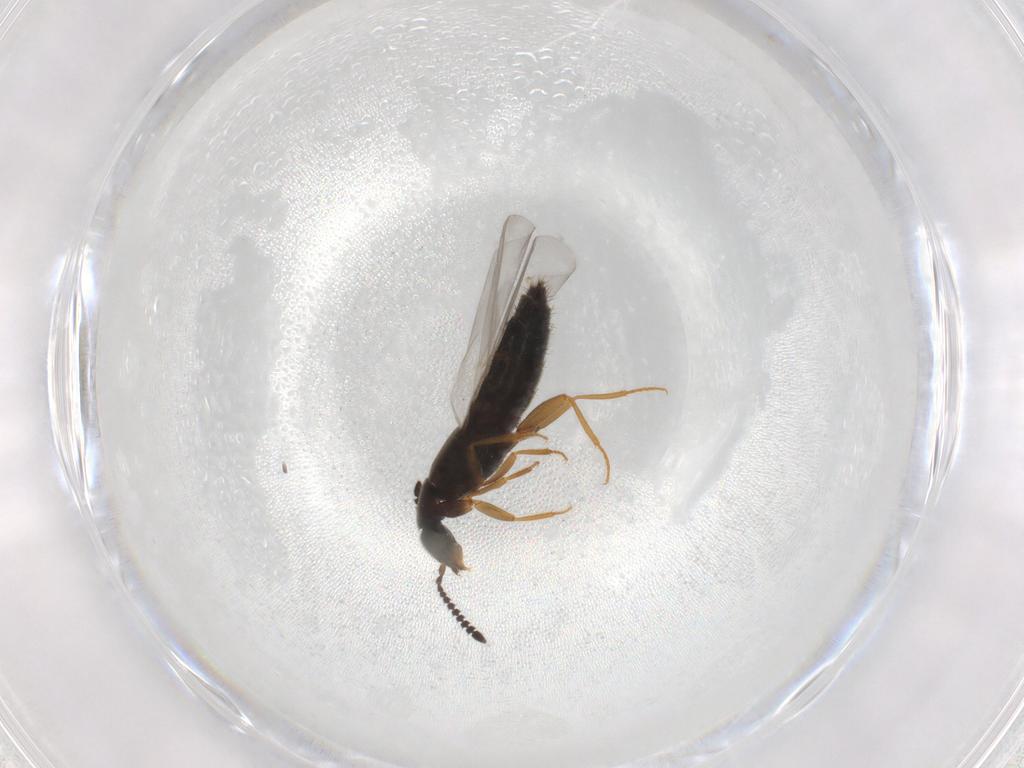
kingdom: Animalia
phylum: Arthropoda
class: Insecta
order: Coleoptera
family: Staphylinidae
